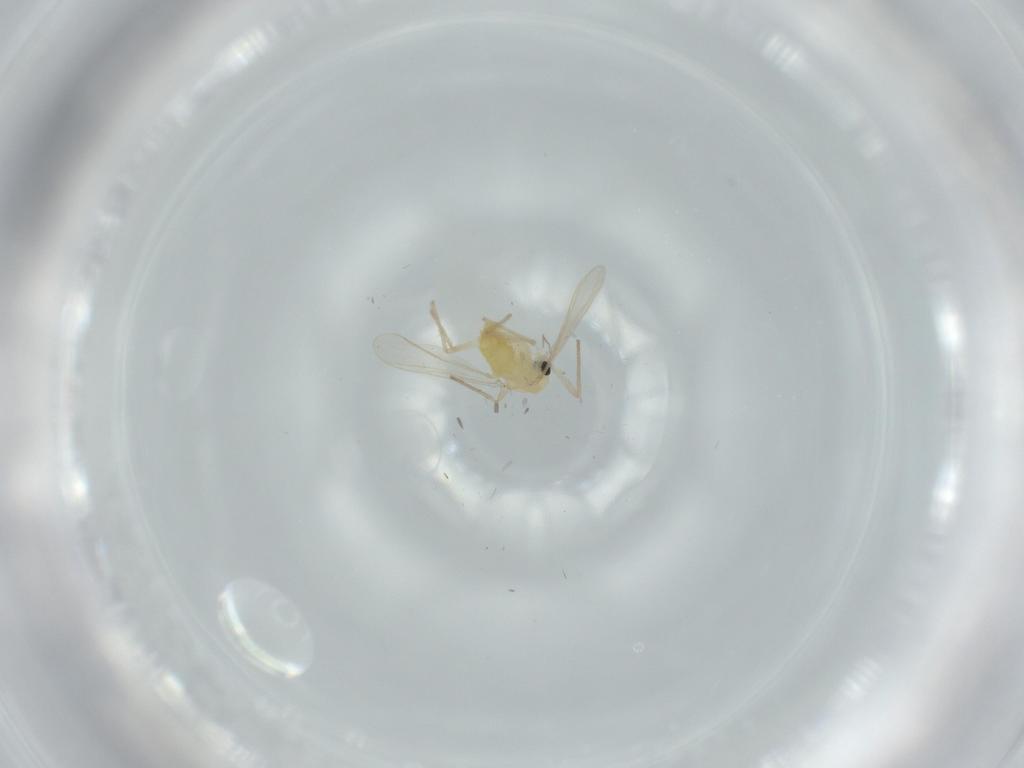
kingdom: Animalia
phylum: Arthropoda
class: Insecta
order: Diptera
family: Chironomidae
